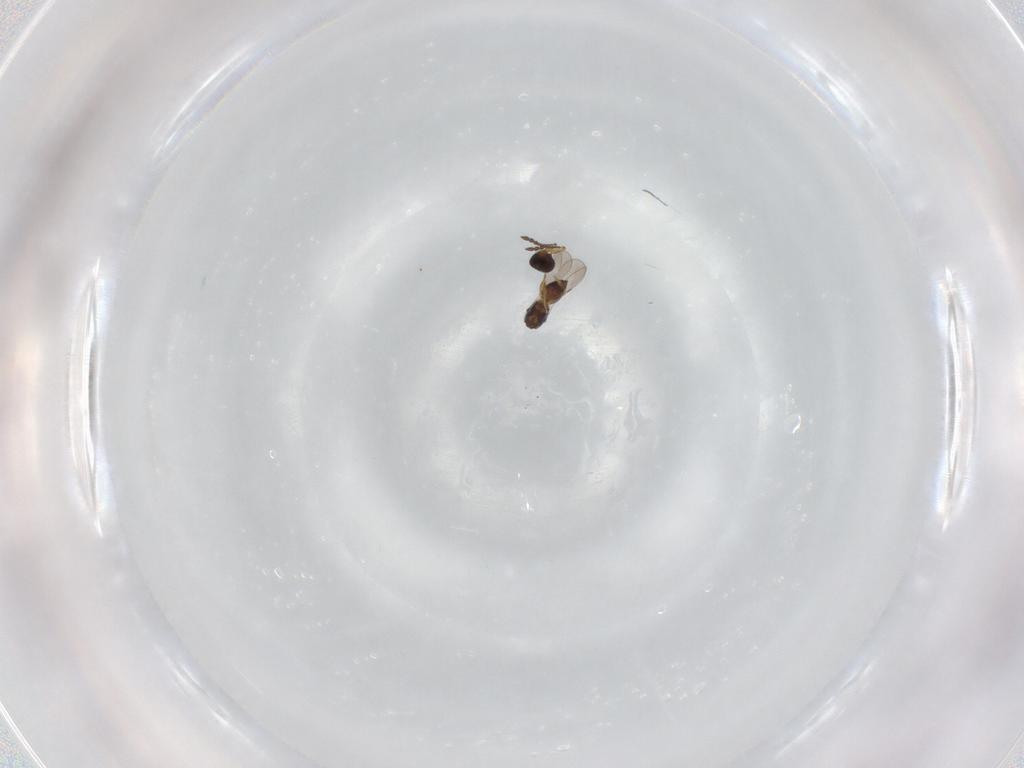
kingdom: Animalia
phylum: Arthropoda
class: Insecta
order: Hymenoptera
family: Ceraphronidae
